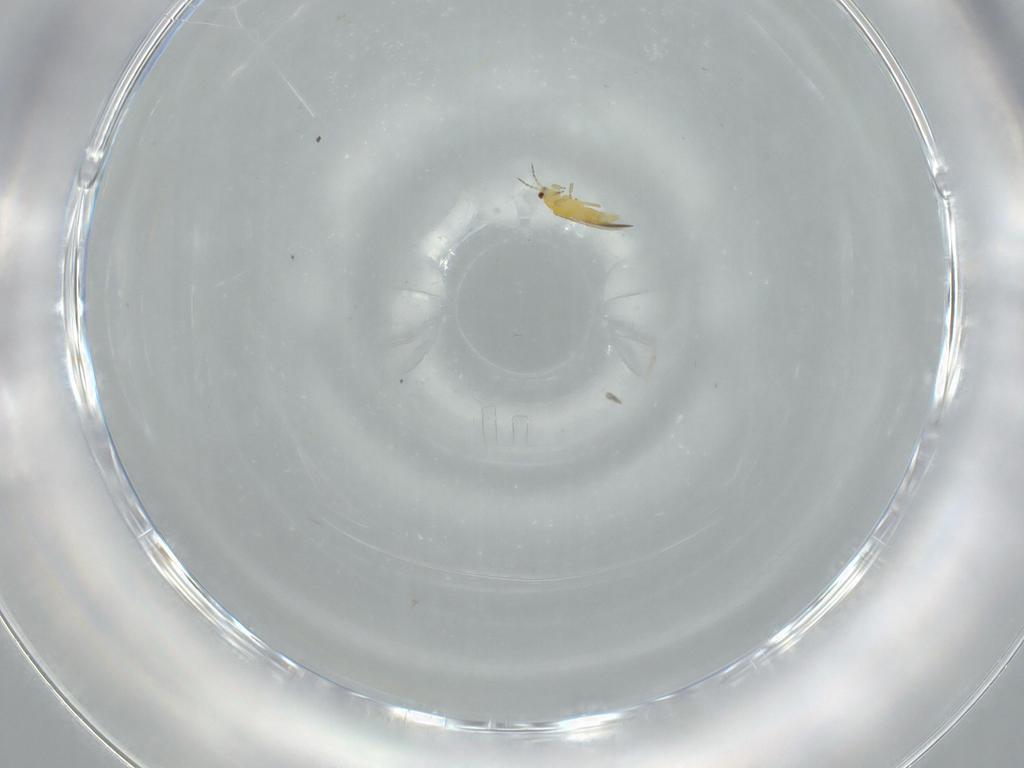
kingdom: Animalia
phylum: Arthropoda
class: Insecta
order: Thysanoptera
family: Thripidae
